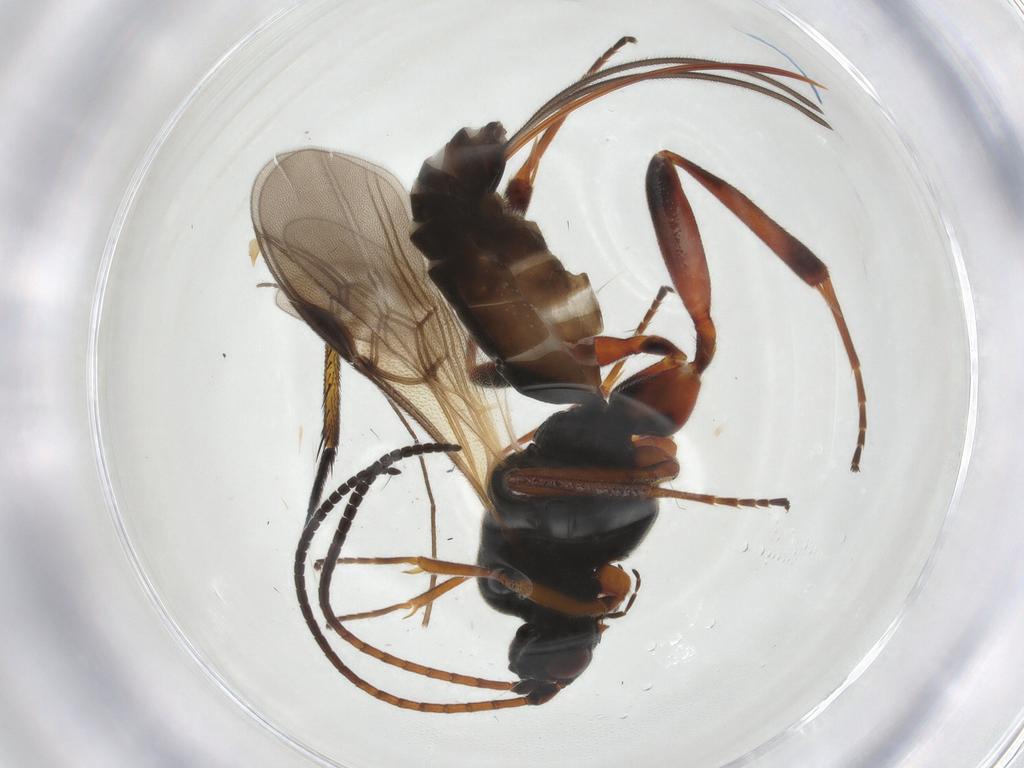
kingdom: Animalia
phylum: Arthropoda
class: Insecta
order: Hymenoptera
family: Braconidae
